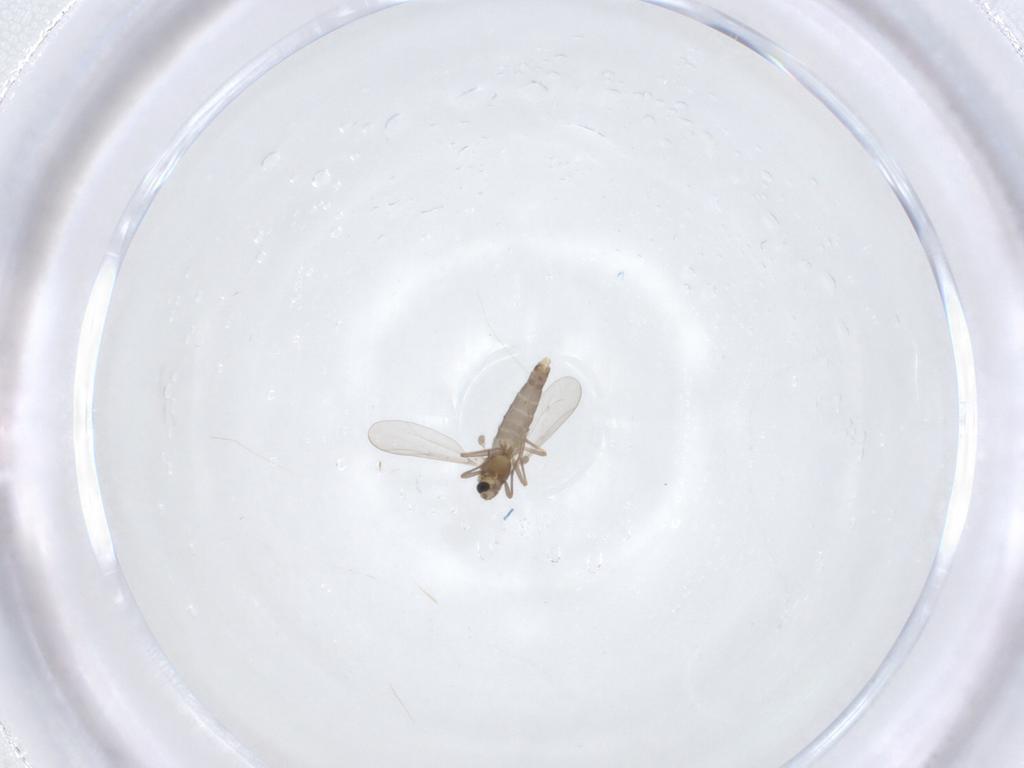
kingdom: Animalia
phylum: Arthropoda
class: Insecta
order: Diptera
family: Chironomidae
